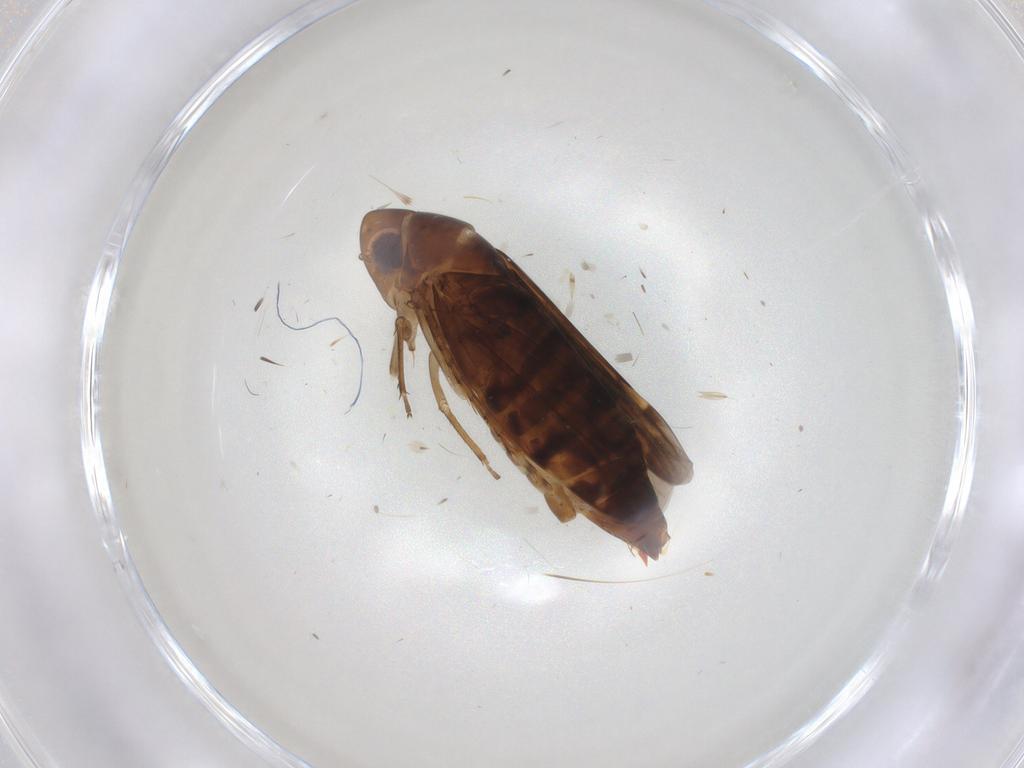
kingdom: Animalia
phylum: Arthropoda
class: Insecta
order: Hemiptera
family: Cicadellidae
